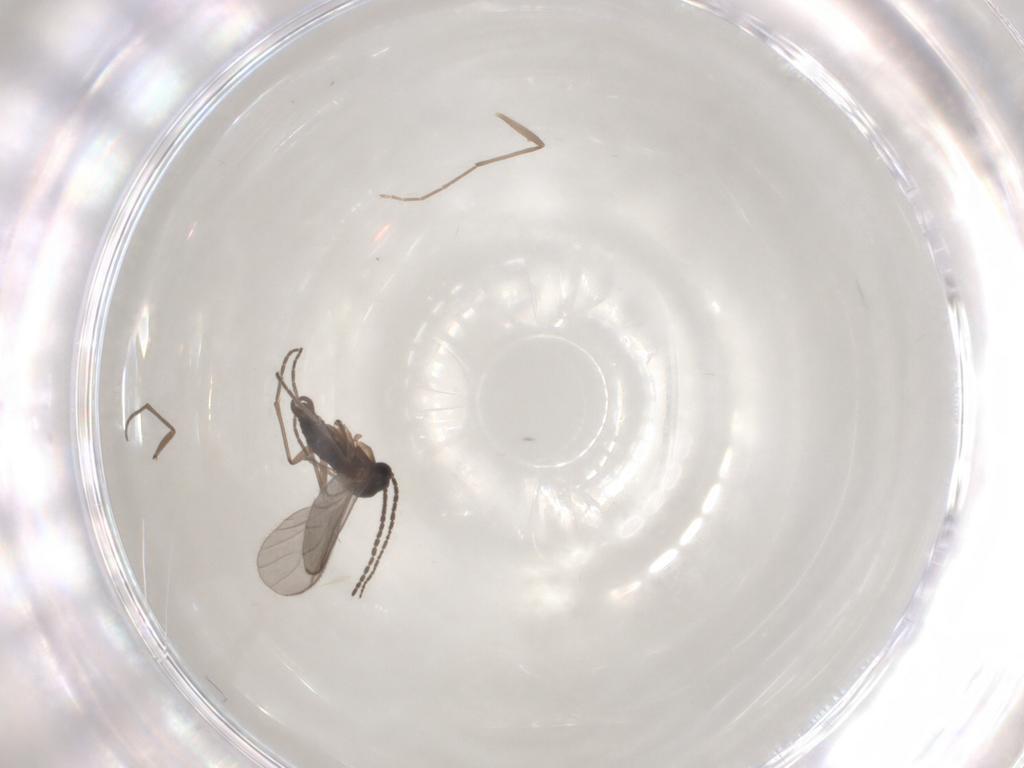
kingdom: Animalia
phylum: Arthropoda
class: Insecta
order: Diptera
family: Sciaridae
